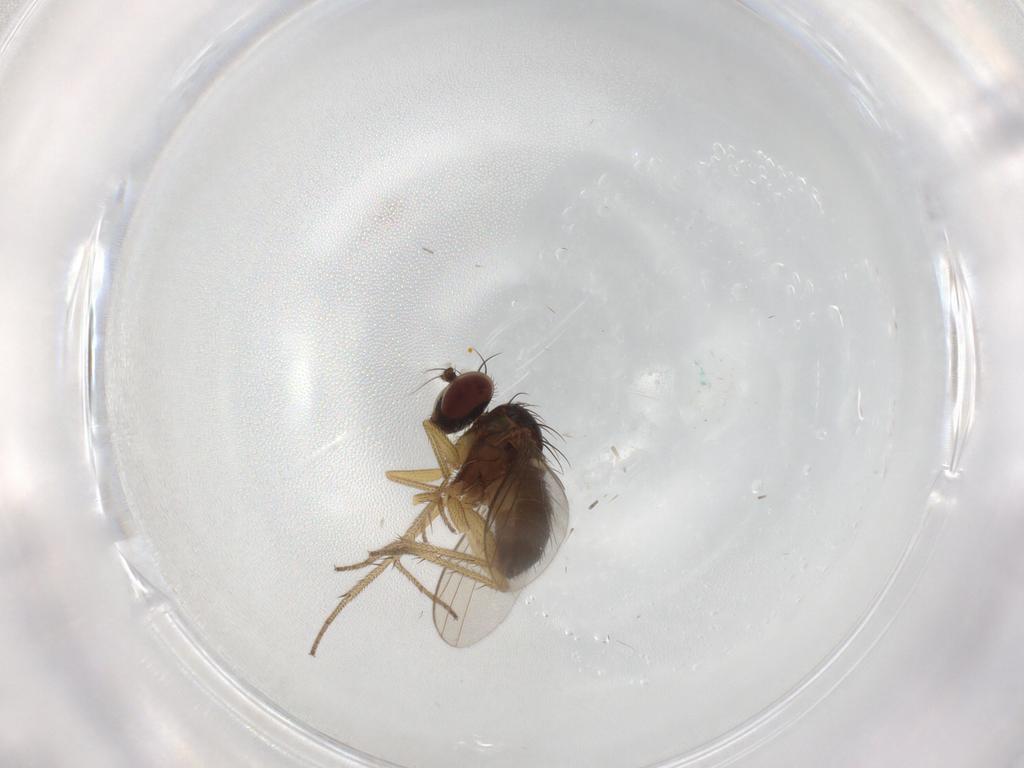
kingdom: Animalia
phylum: Arthropoda
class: Insecta
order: Diptera
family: Dolichopodidae
